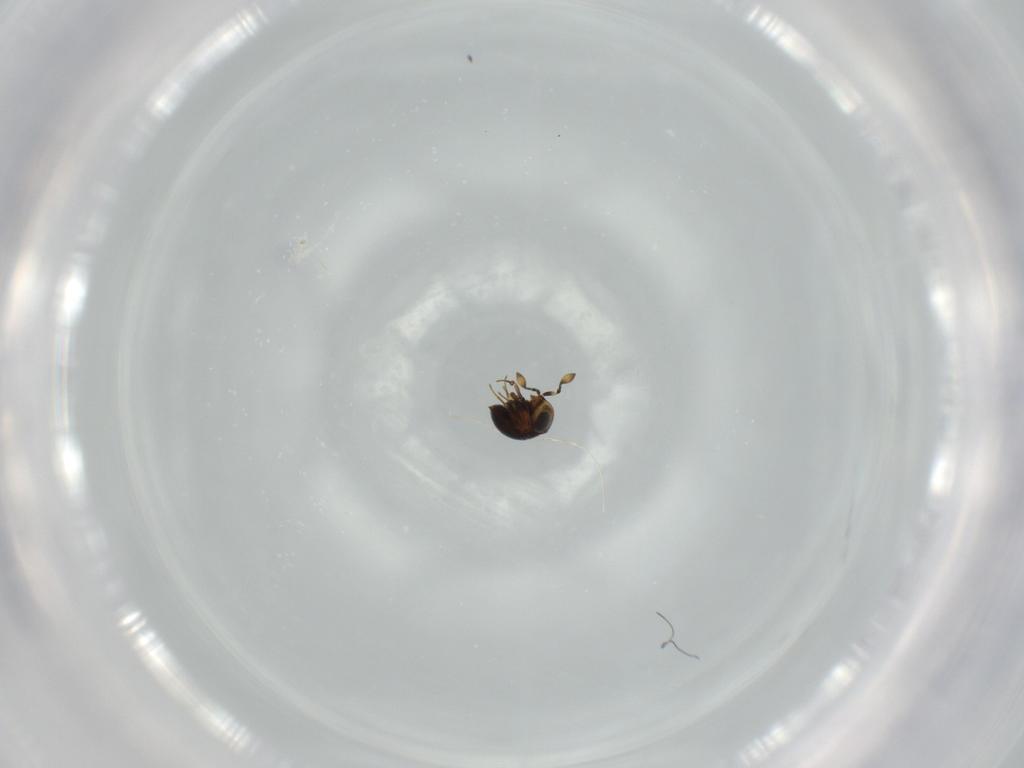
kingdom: Animalia
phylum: Arthropoda
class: Insecta
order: Hymenoptera
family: Scelionidae
